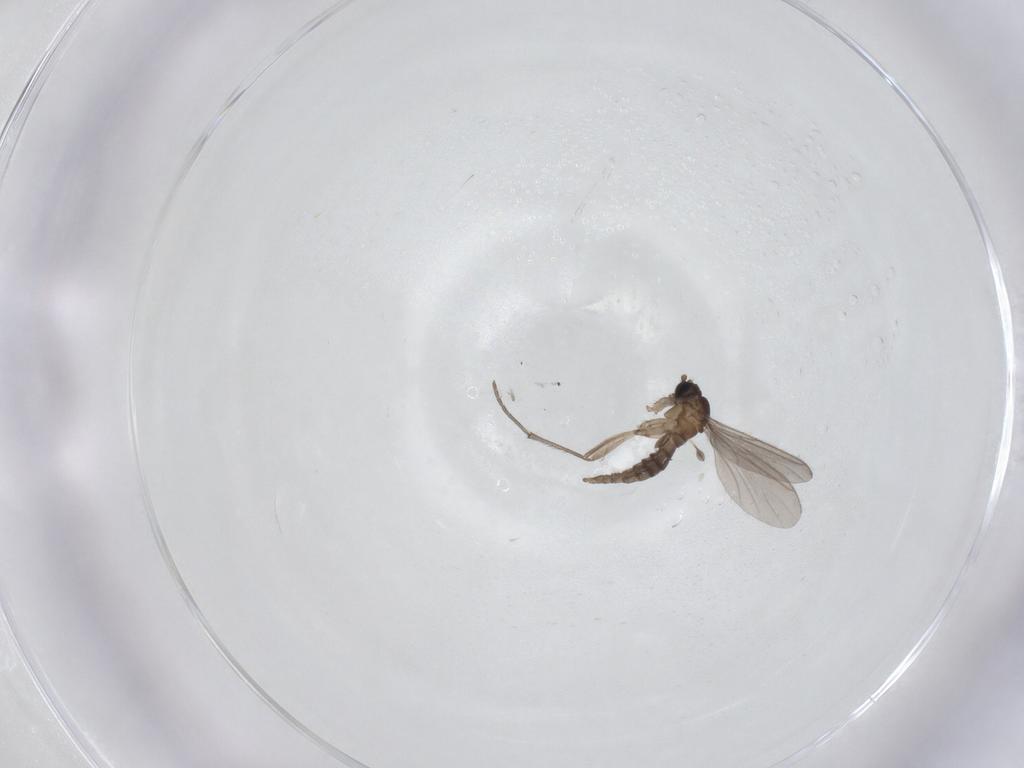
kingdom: Animalia
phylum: Arthropoda
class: Insecta
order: Diptera
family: Sciaridae
